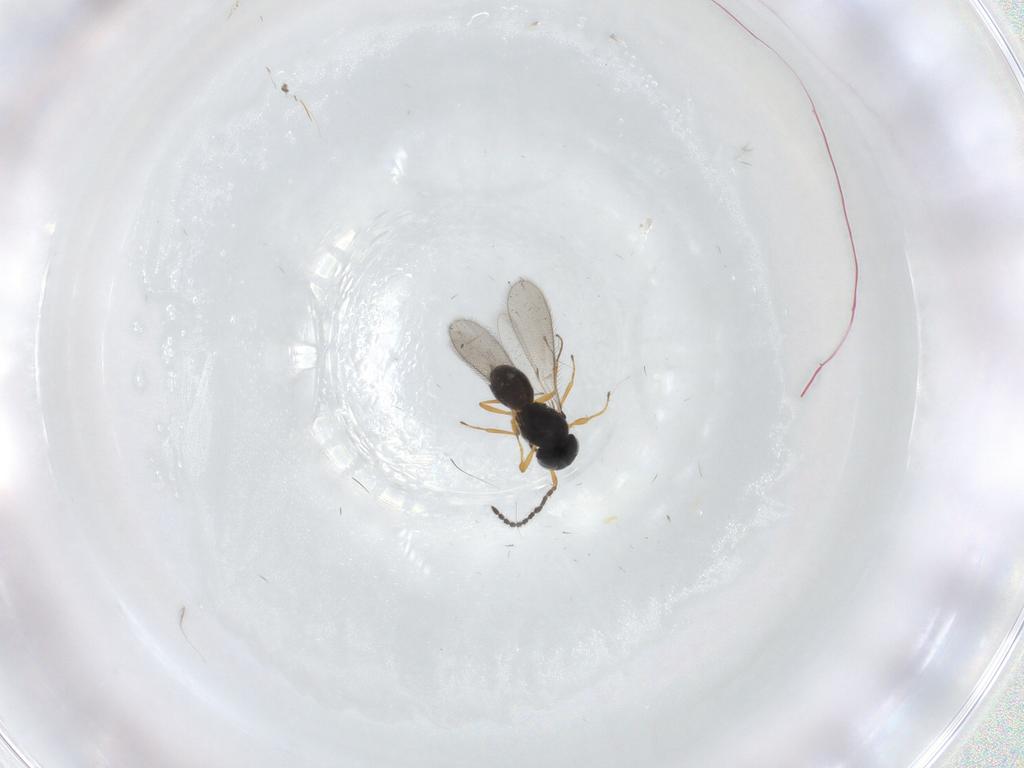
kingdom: Animalia
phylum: Arthropoda
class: Insecta
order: Hymenoptera
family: Scelionidae
